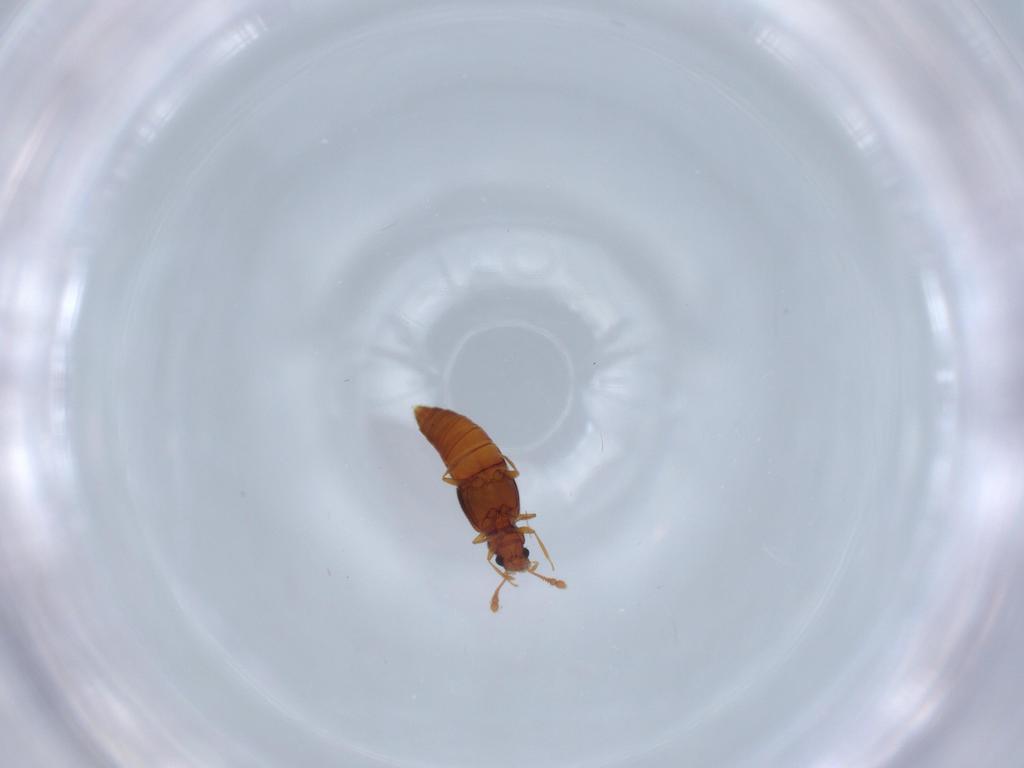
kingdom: Animalia
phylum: Arthropoda
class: Insecta
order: Coleoptera
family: Staphylinidae
